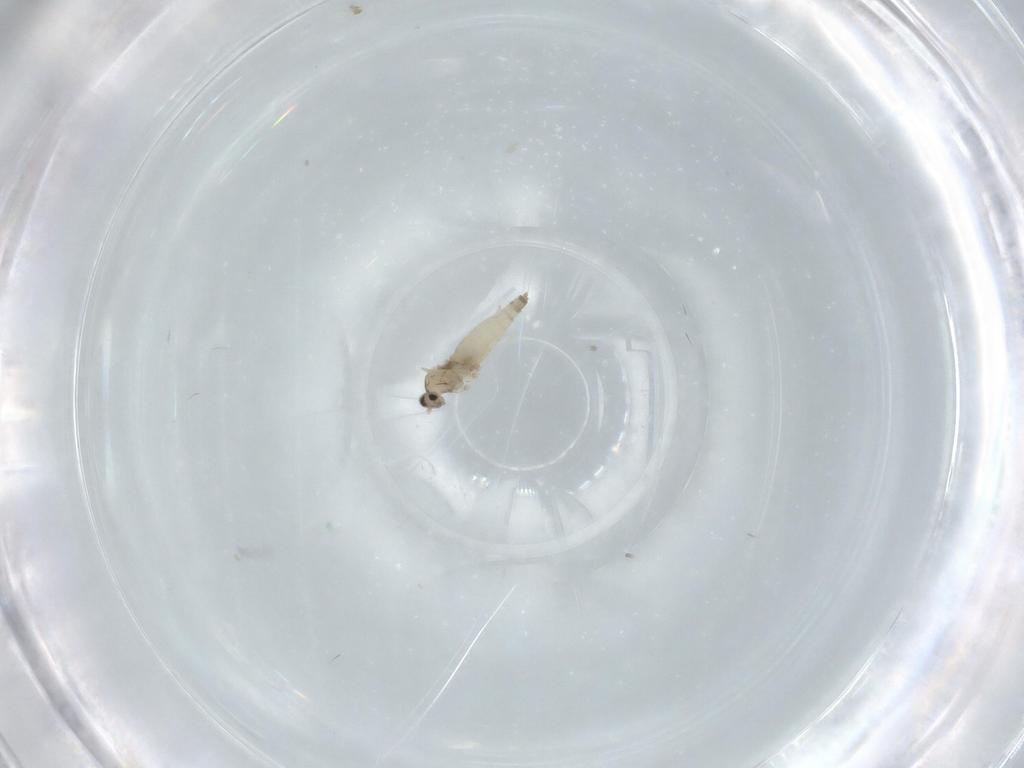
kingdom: Animalia
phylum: Arthropoda
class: Insecta
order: Diptera
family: Cecidomyiidae
